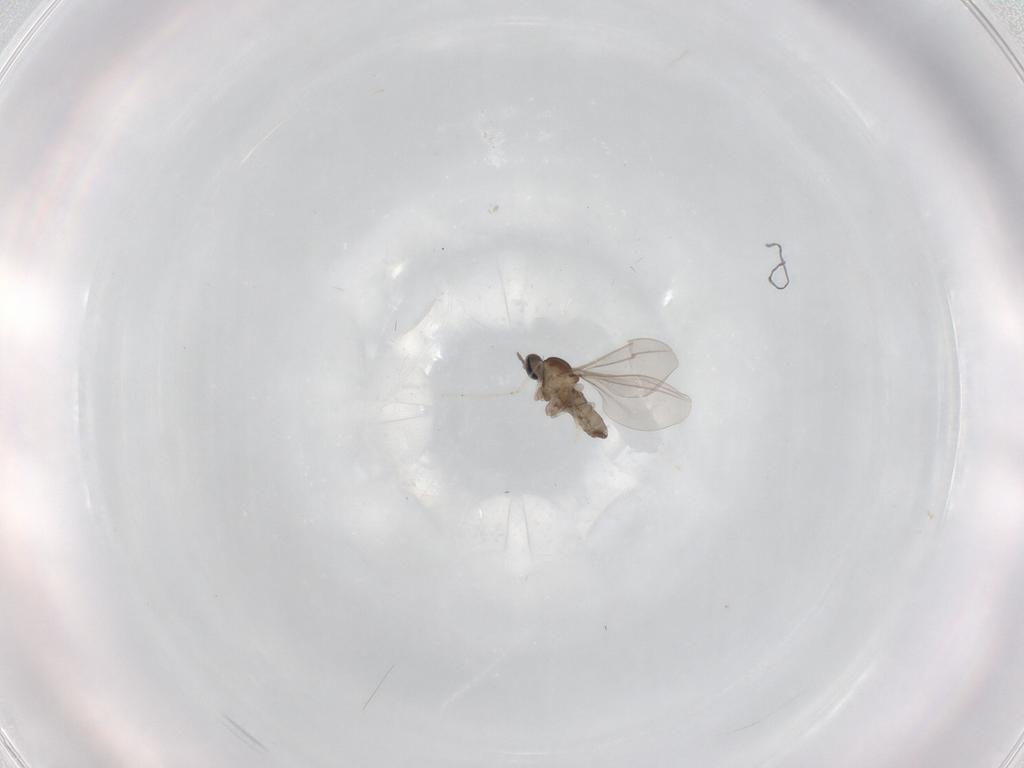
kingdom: Animalia
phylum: Arthropoda
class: Insecta
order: Diptera
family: Cecidomyiidae
